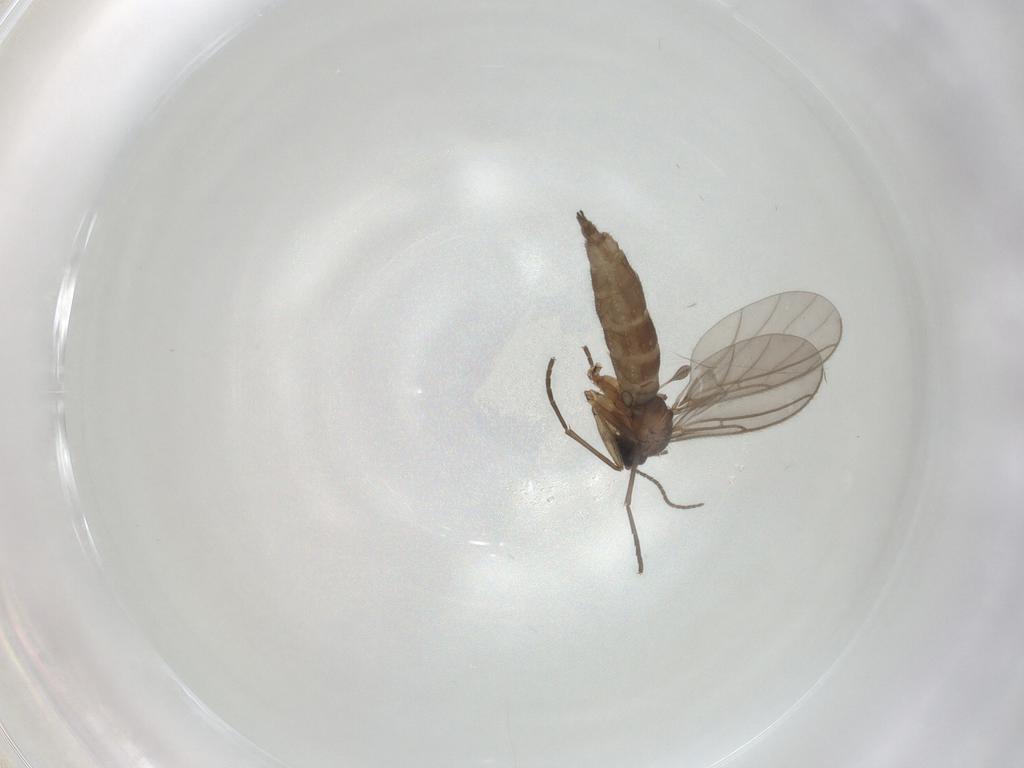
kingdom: Animalia
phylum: Arthropoda
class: Insecta
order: Diptera
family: Sciaridae
